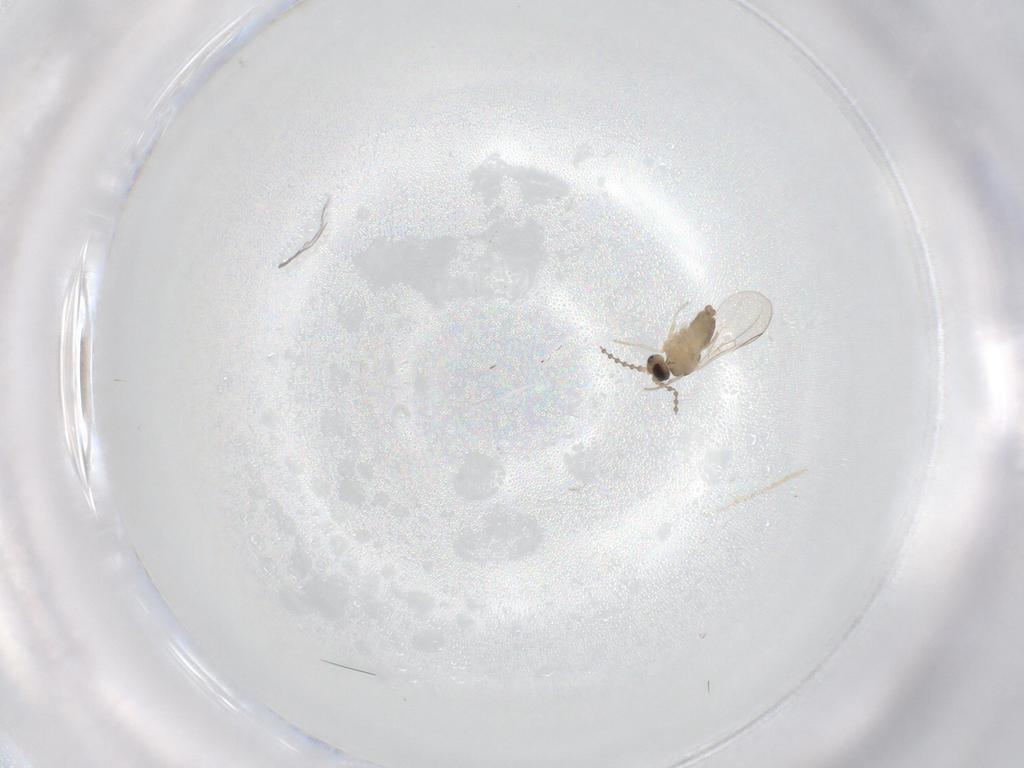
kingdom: Animalia
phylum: Arthropoda
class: Insecta
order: Diptera
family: Cecidomyiidae
